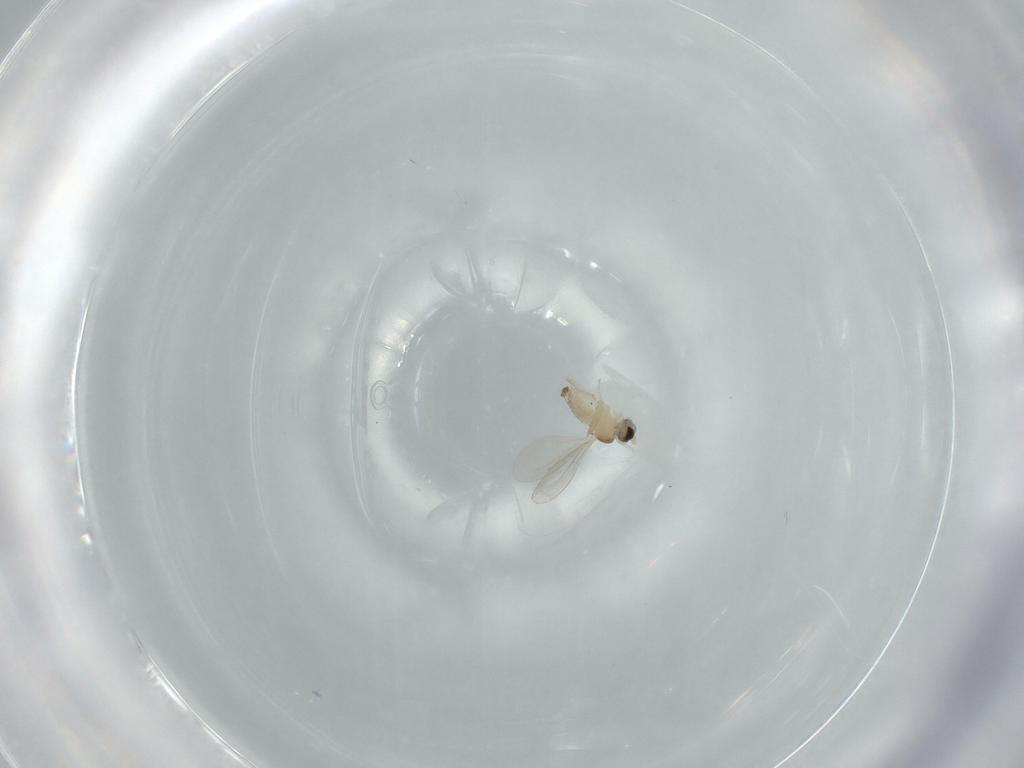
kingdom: Animalia
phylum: Arthropoda
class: Insecta
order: Diptera
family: Cecidomyiidae
